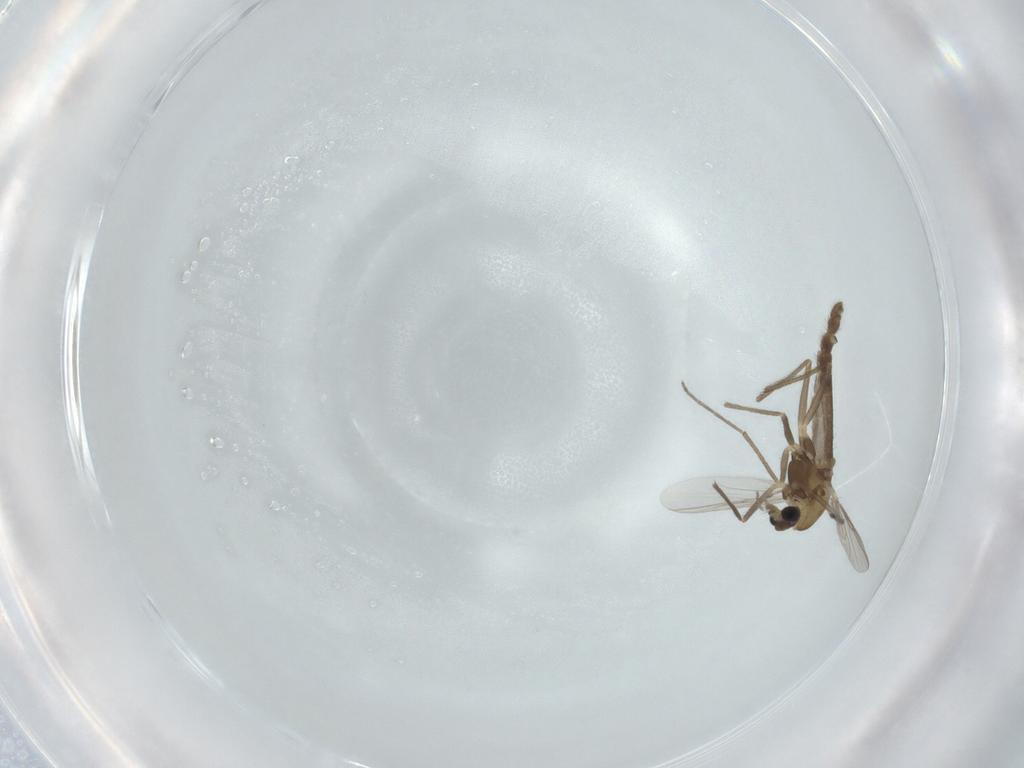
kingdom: Animalia
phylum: Arthropoda
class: Insecta
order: Diptera
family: Chironomidae
